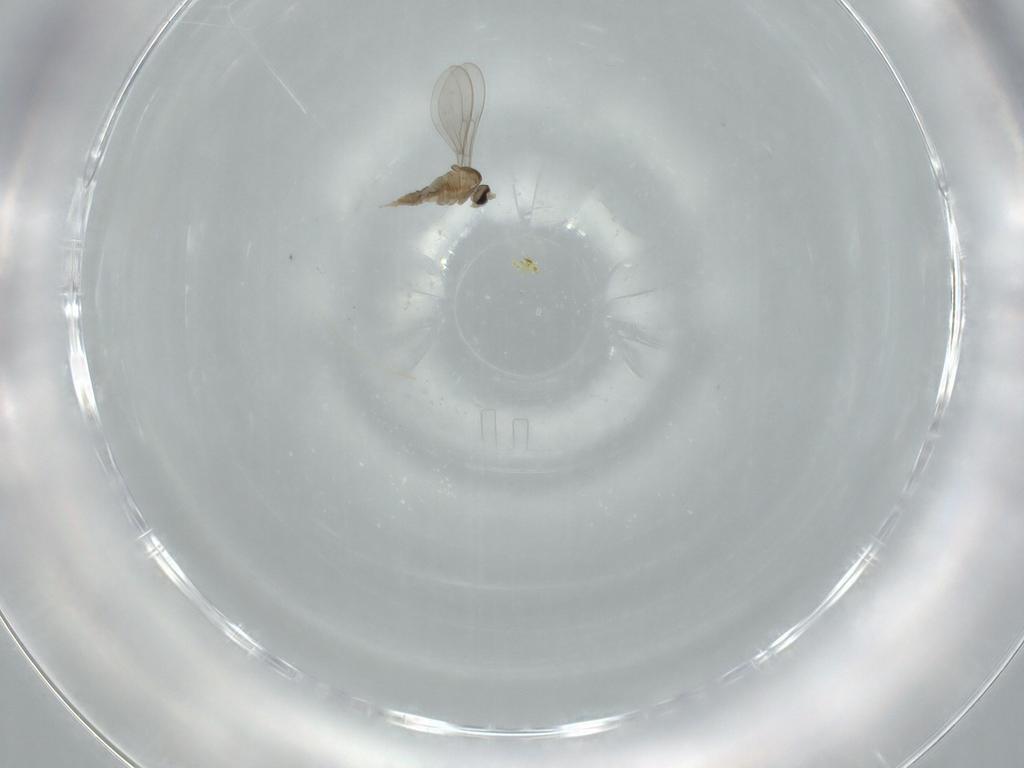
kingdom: Animalia
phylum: Arthropoda
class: Insecta
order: Diptera
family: Cecidomyiidae
